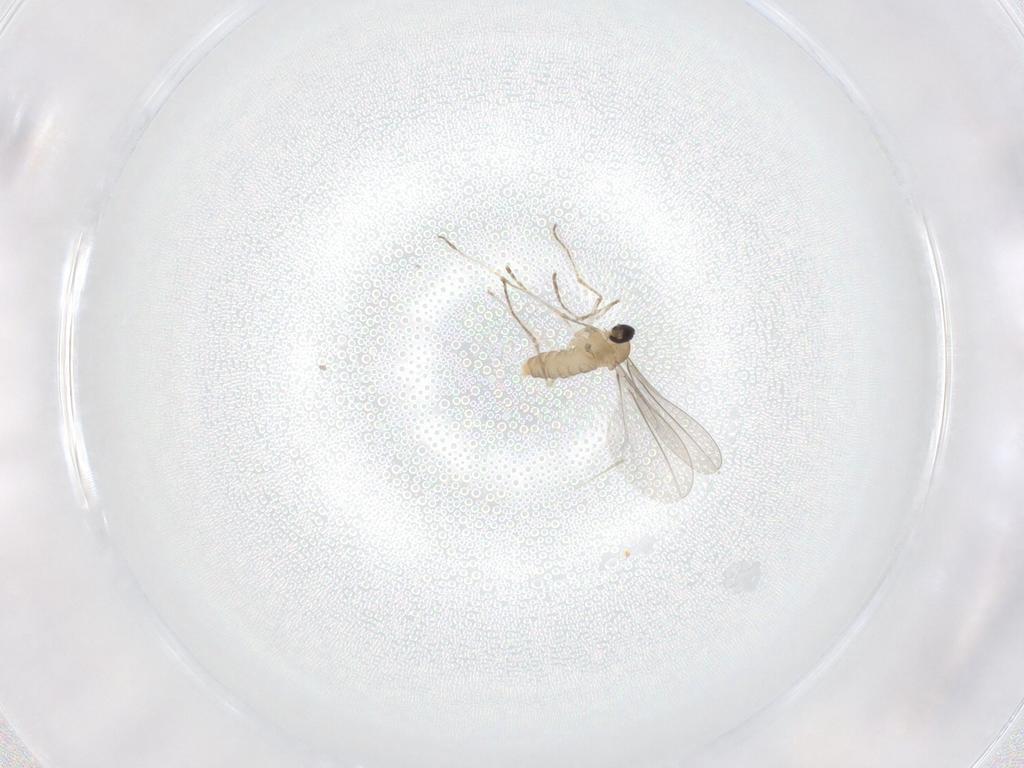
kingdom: Animalia
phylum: Arthropoda
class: Insecta
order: Diptera
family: Cecidomyiidae
